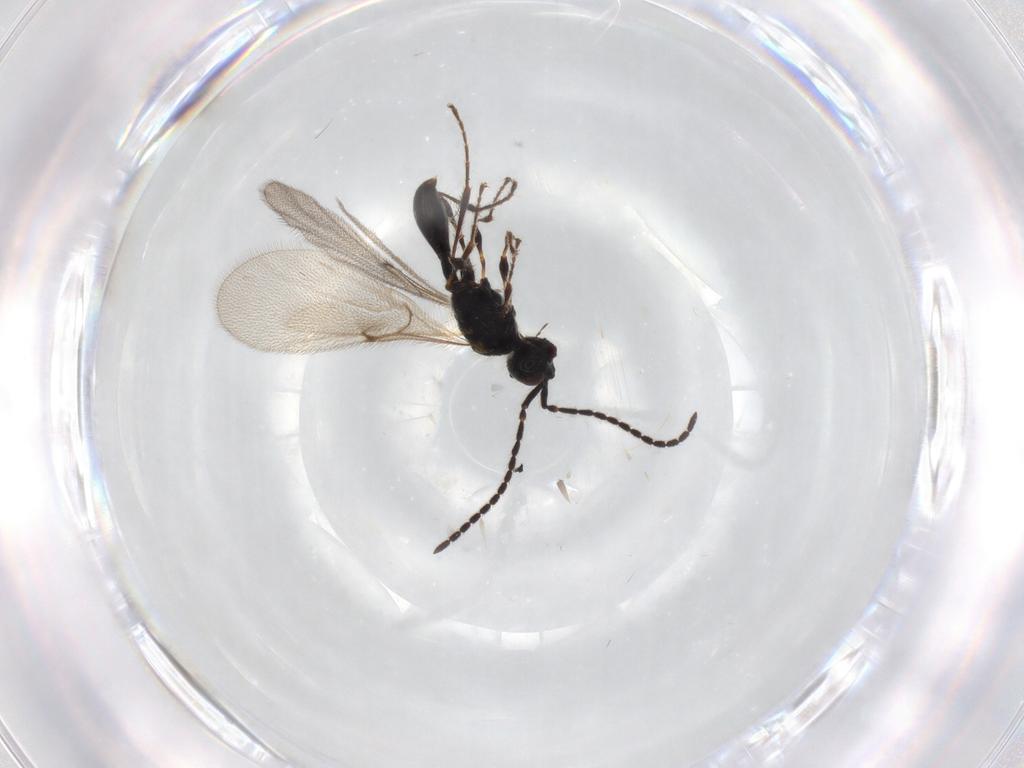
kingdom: Animalia
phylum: Arthropoda
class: Insecta
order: Hymenoptera
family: Diapriidae
